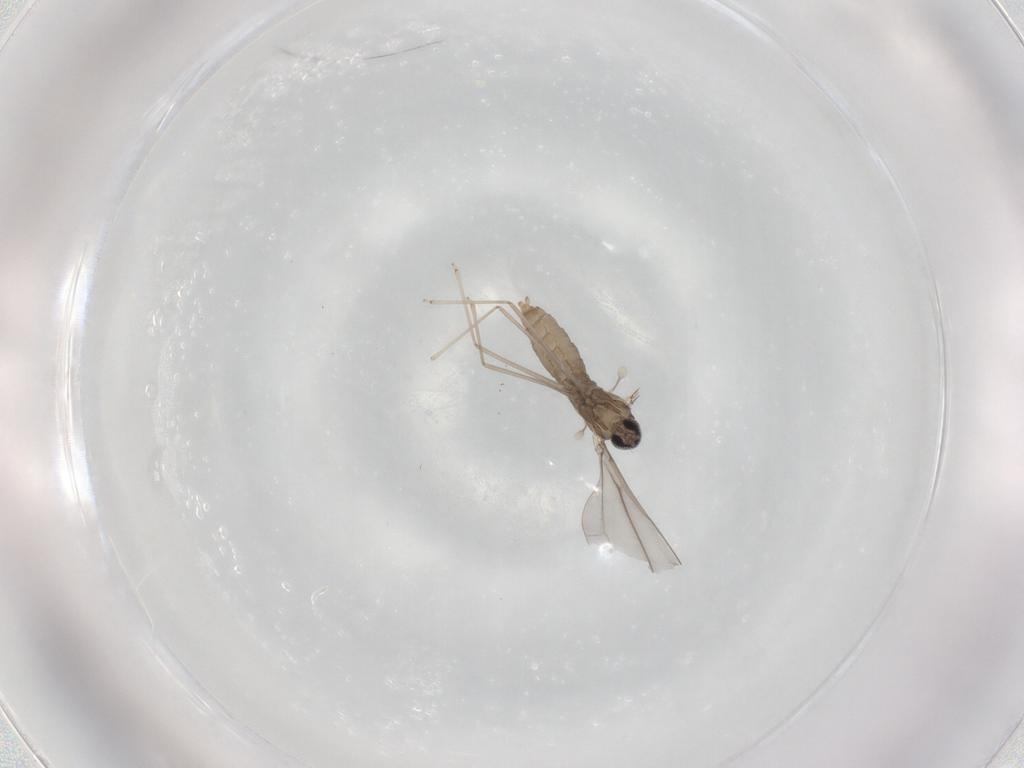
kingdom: Animalia
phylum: Arthropoda
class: Insecta
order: Diptera
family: Cecidomyiidae
